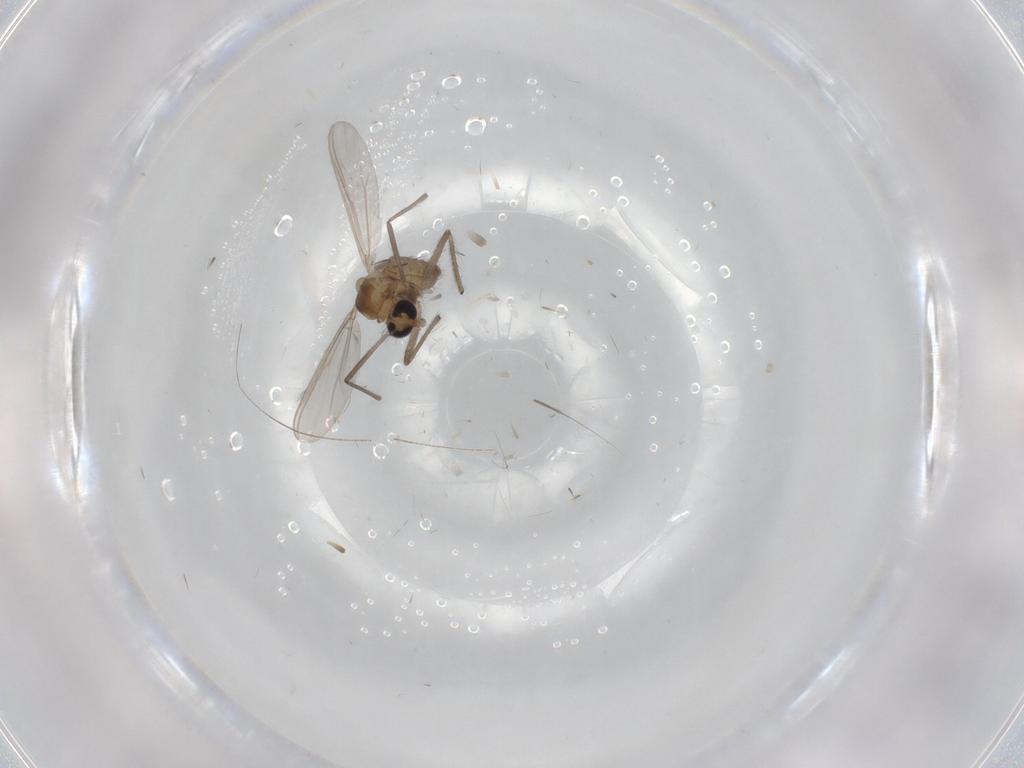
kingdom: Animalia
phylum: Arthropoda
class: Insecta
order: Diptera
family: Chironomidae
